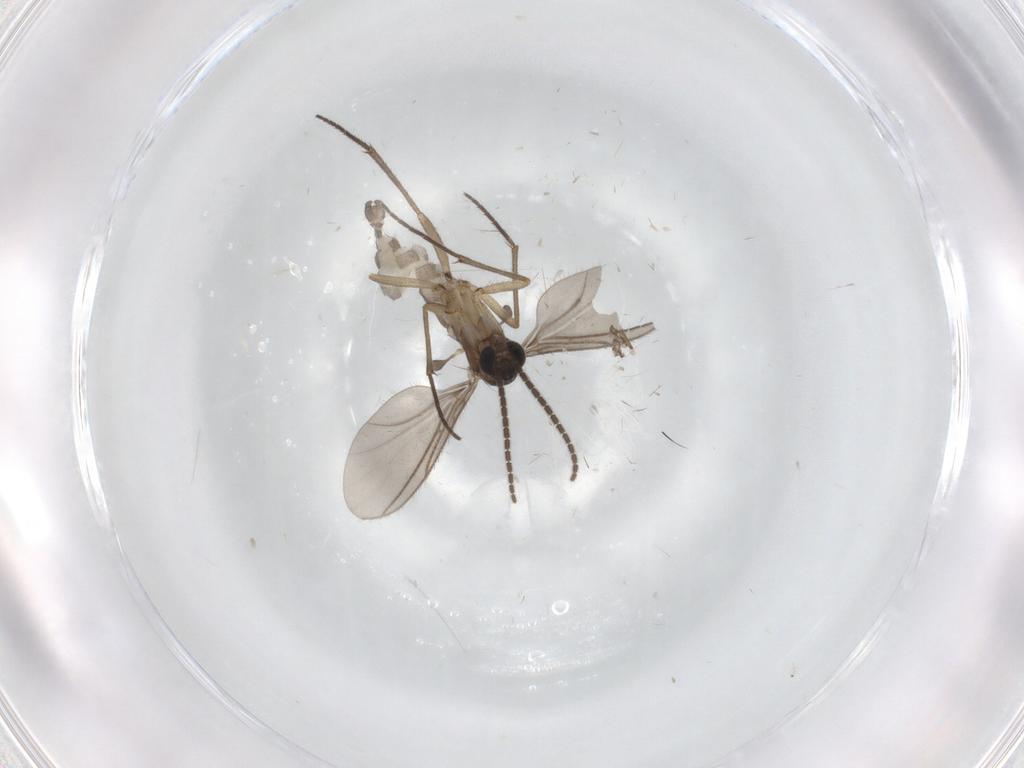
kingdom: Animalia
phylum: Arthropoda
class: Insecta
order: Diptera
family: Sciaridae
